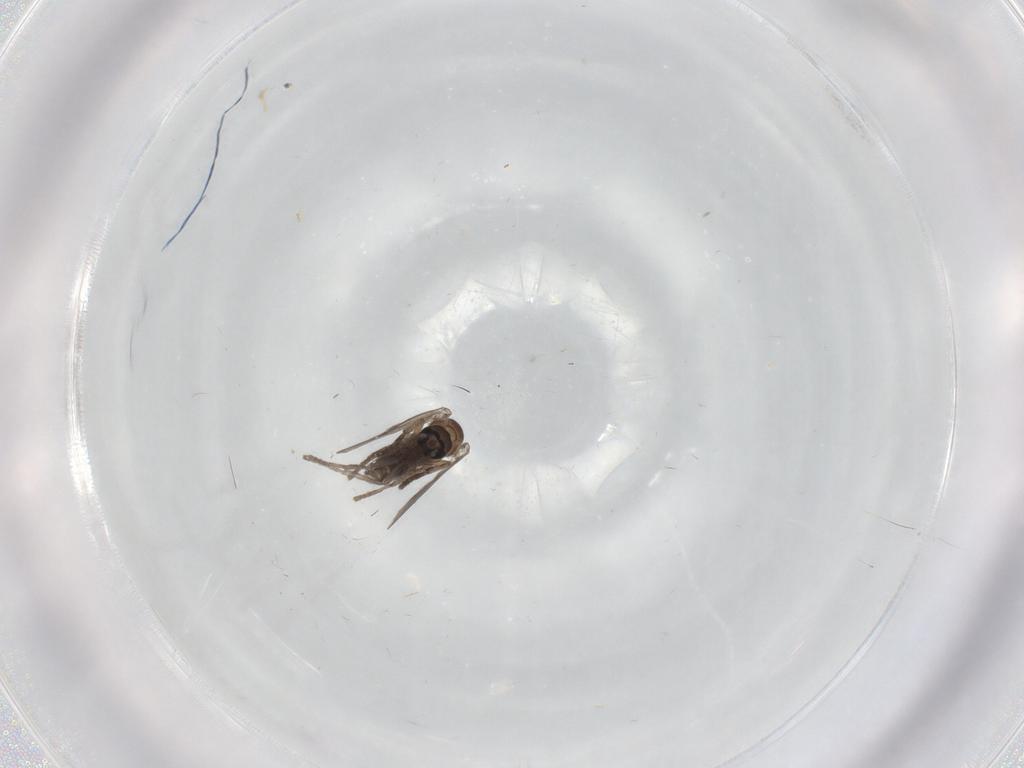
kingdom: Animalia
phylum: Arthropoda
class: Insecta
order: Diptera
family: Psychodidae
